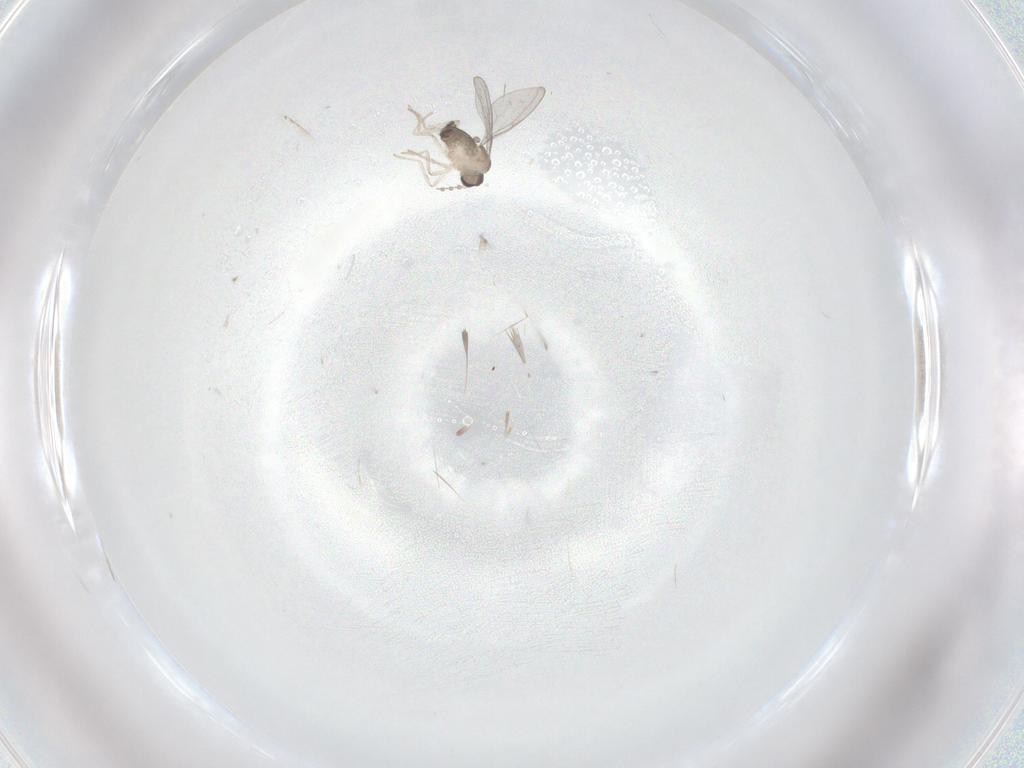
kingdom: Animalia
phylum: Arthropoda
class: Insecta
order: Diptera
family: Cecidomyiidae
